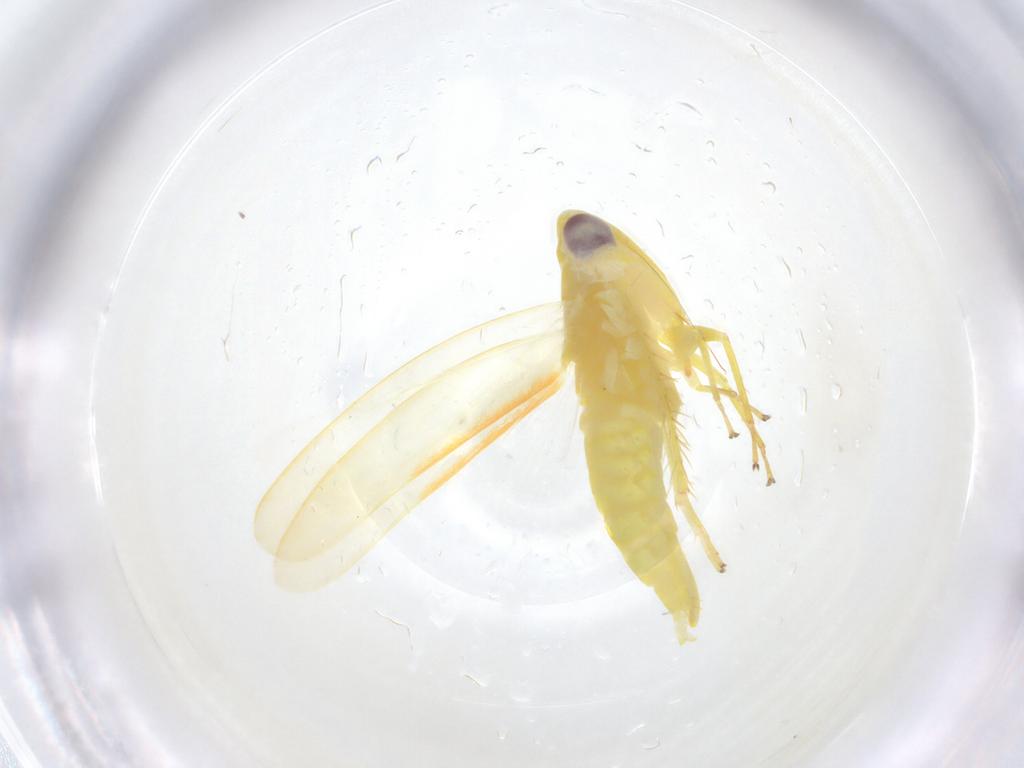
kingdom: Animalia
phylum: Arthropoda
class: Insecta
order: Hemiptera
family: Cicadellidae
